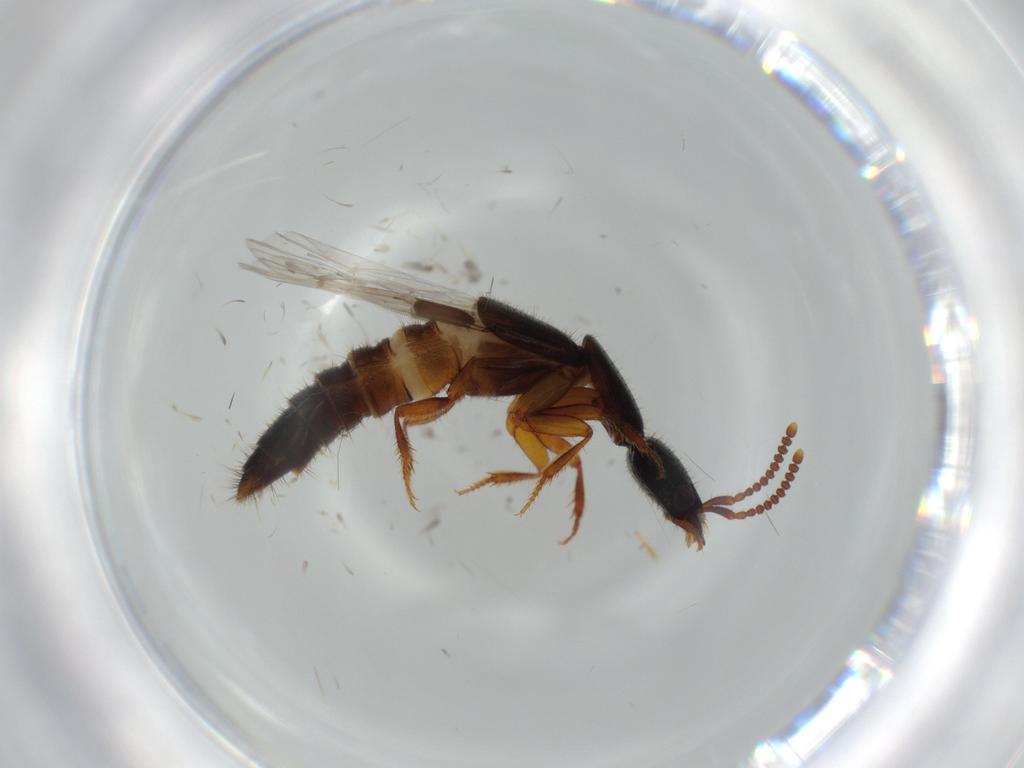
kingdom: Animalia
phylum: Arthropoda
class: Insecta
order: Coleoptera
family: Staphylinidae
